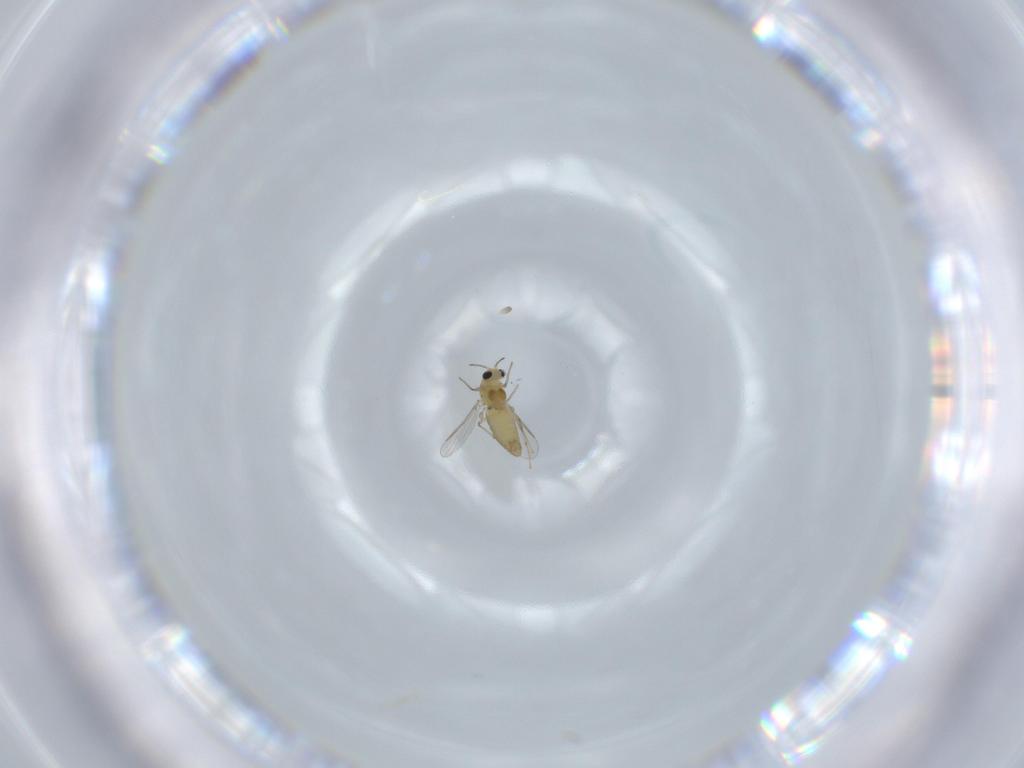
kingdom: Animalia
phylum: Arthropoda
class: Insecta
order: Diptera
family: Chironomidae
